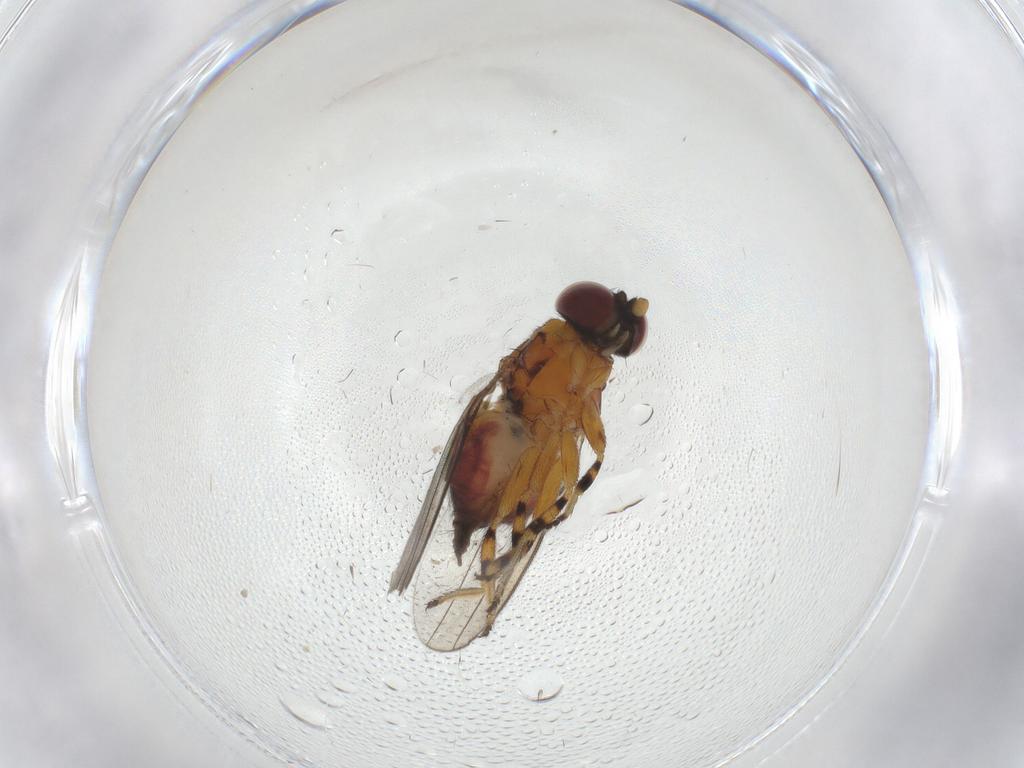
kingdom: Animalia
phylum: Arthropoda
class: Insecta
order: Diptera
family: Chloropidae
